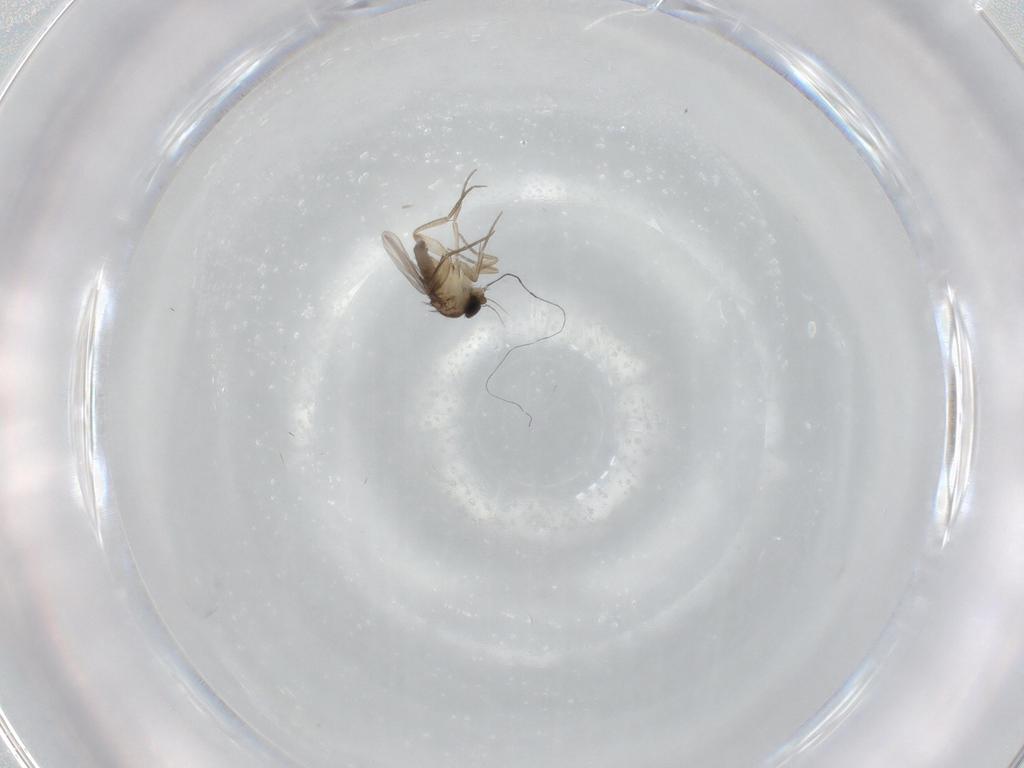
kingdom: Animalia
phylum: Arthropoda
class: Insecta
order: Diptera
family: Phoridae
